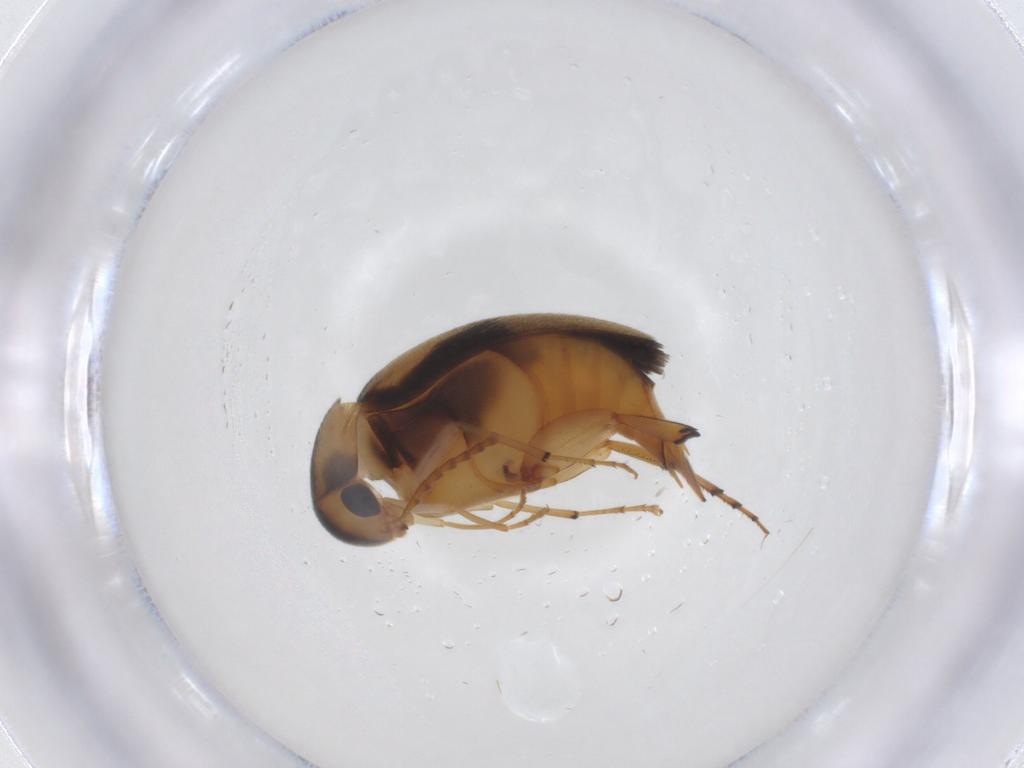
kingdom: Animalia
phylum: Arthropoda
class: Insecta
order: Coleoptera
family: Mordellidae
